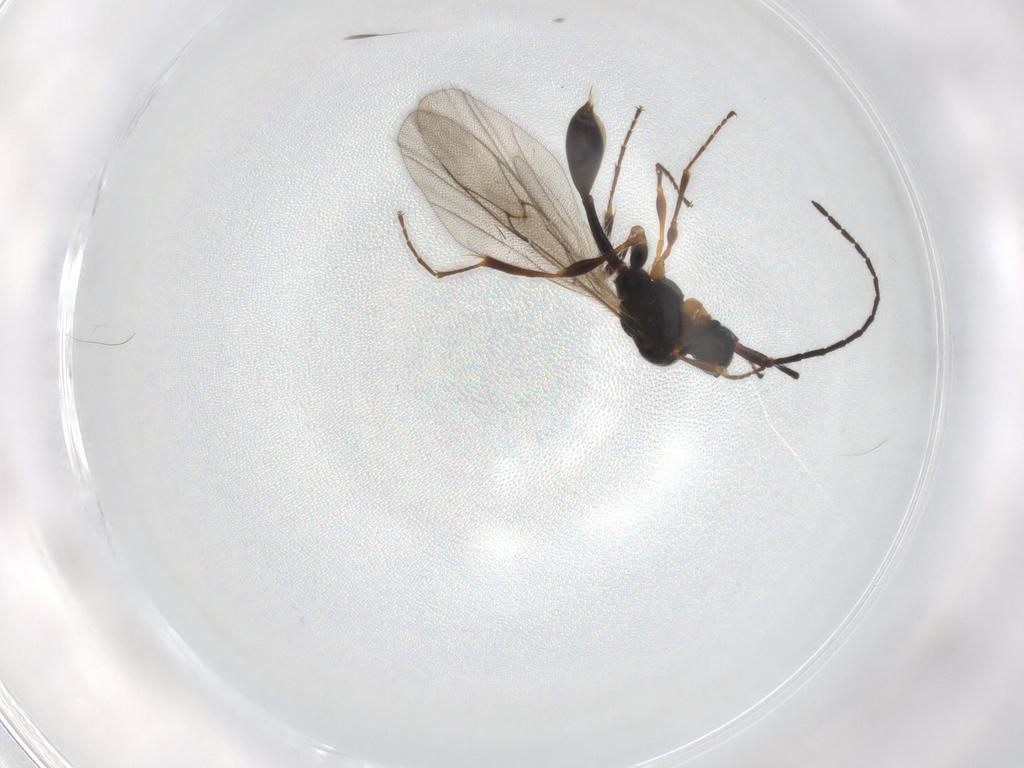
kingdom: Animalia
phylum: Arthropoda
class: Insecta
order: Hymenoptera
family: Diapriidae
